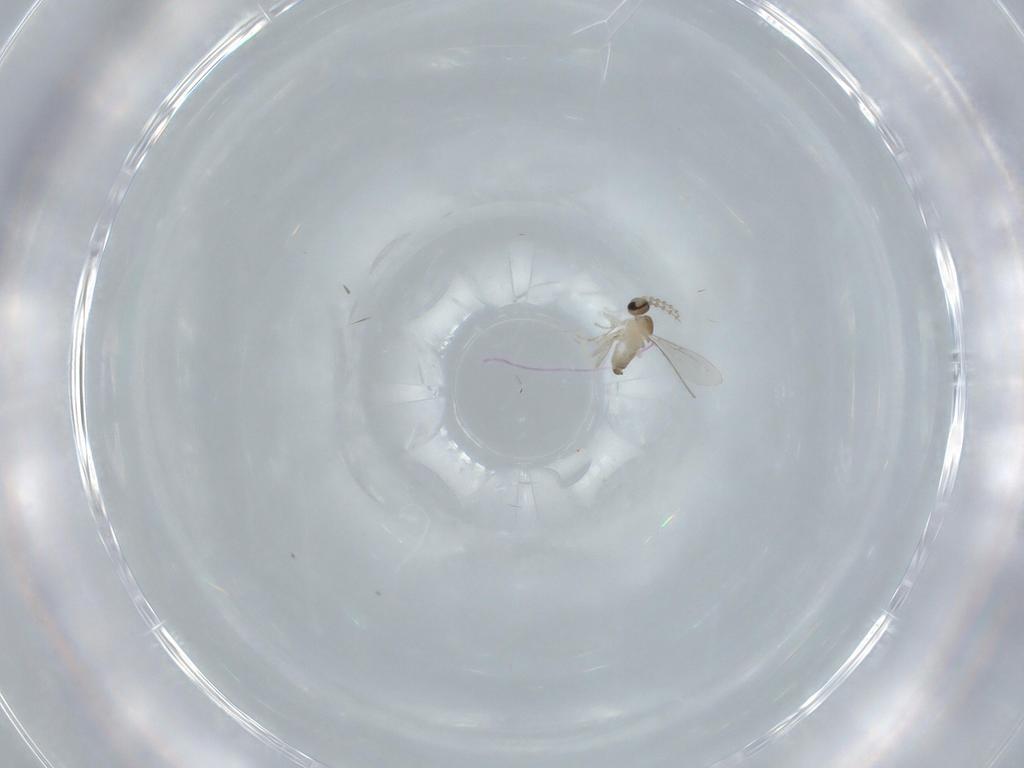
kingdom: Animalia
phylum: Arthropoda
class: Insecta
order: Diptera
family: Cecidomyiidae
